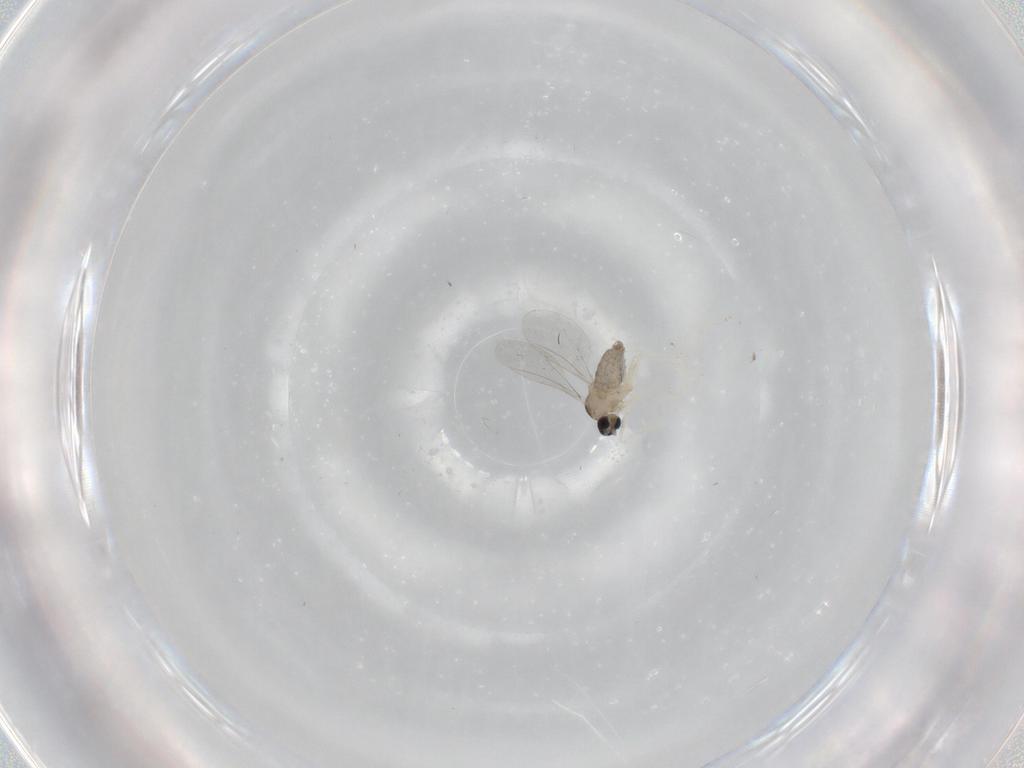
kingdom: Animalia
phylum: Arthropoda
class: Insecta
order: Diptera
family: Cecidomyiidae
